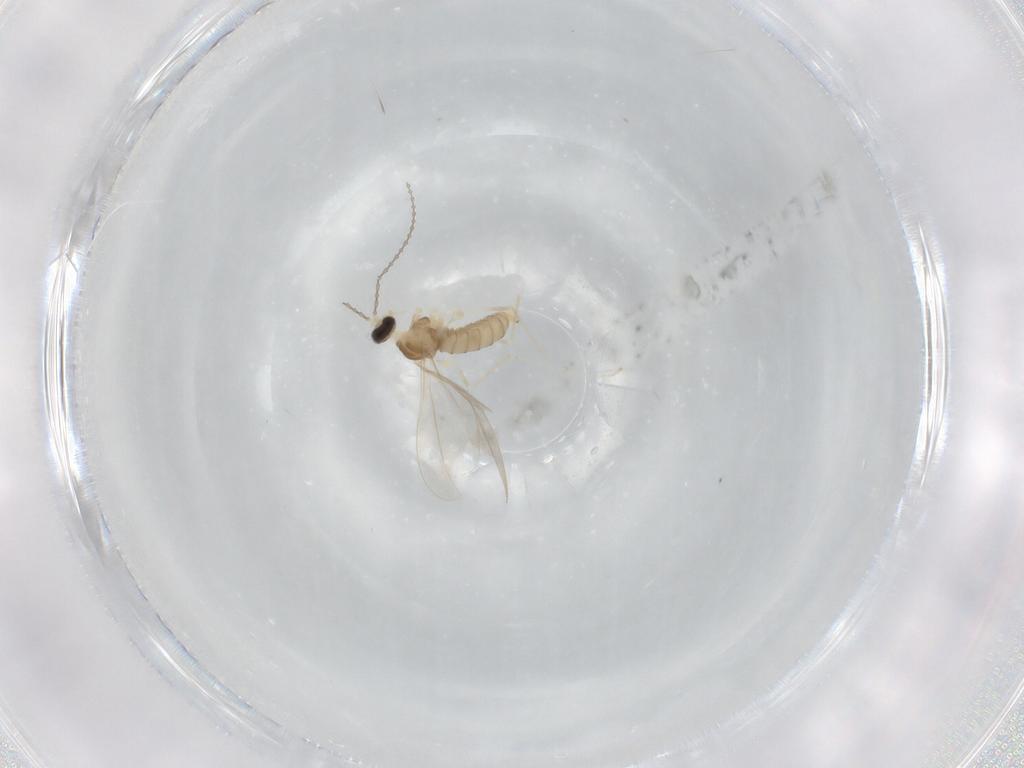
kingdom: Animalia
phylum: Arthropoda
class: Insecta
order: Diptera
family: Cecidomyiidae
